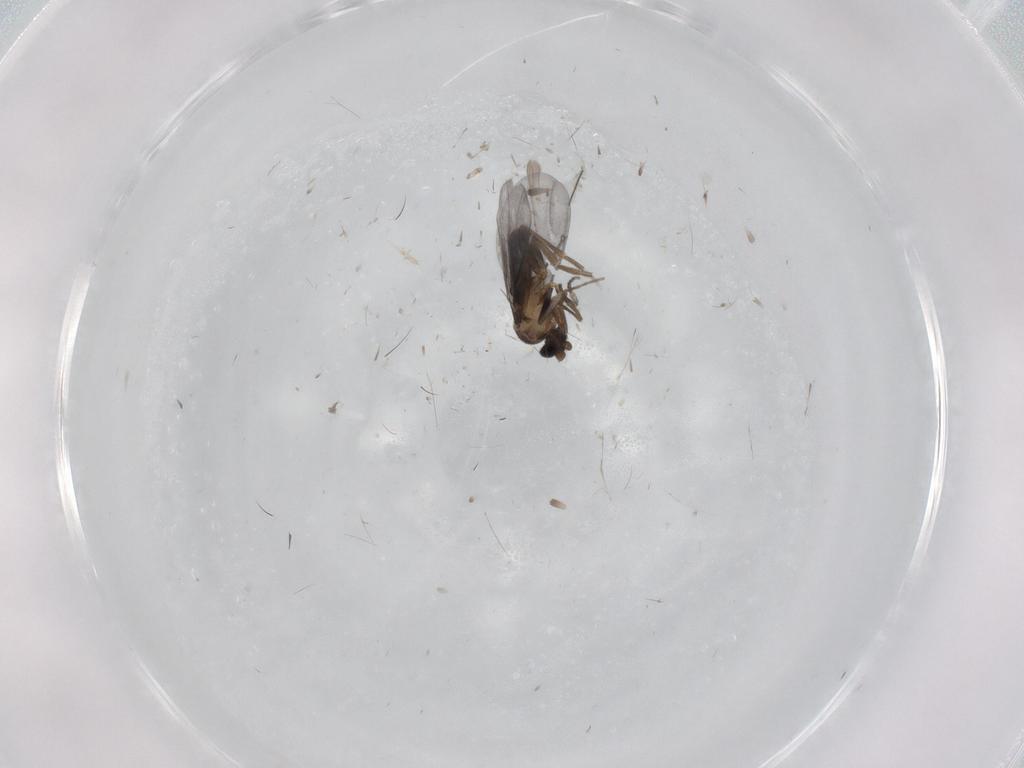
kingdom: Animalia
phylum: Arthropoda
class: Insecta
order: Diptera
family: Phoridae
